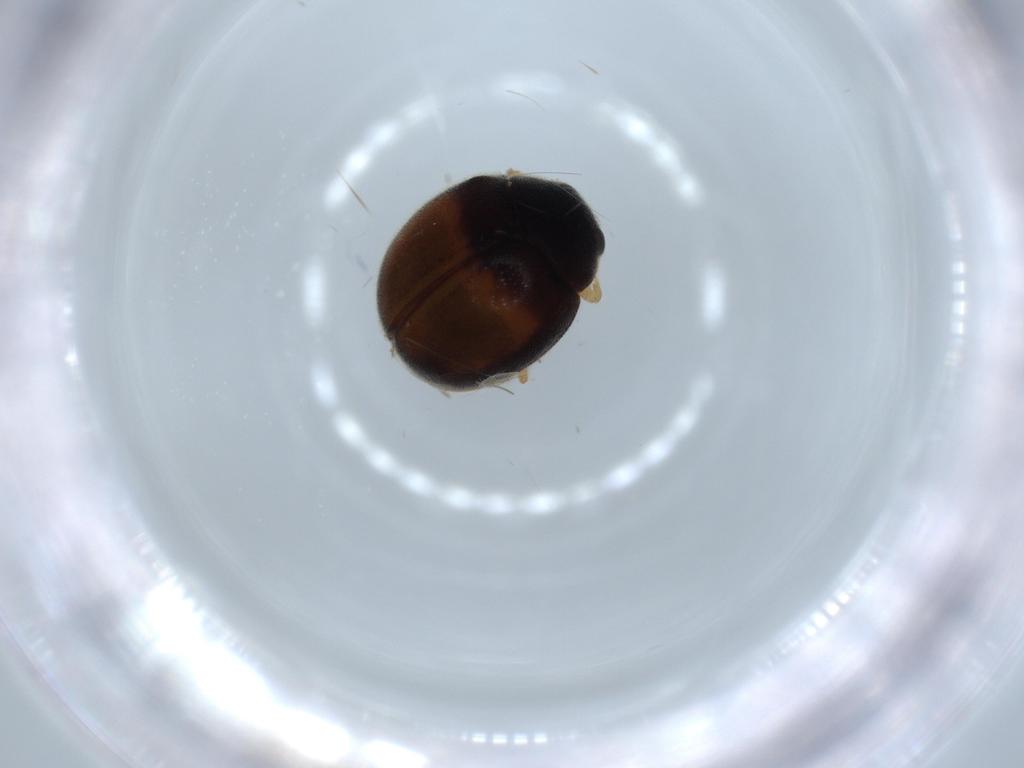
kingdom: Animalia
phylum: Arthropoda
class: Insecta
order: Coleoptera
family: Coccinellidae
